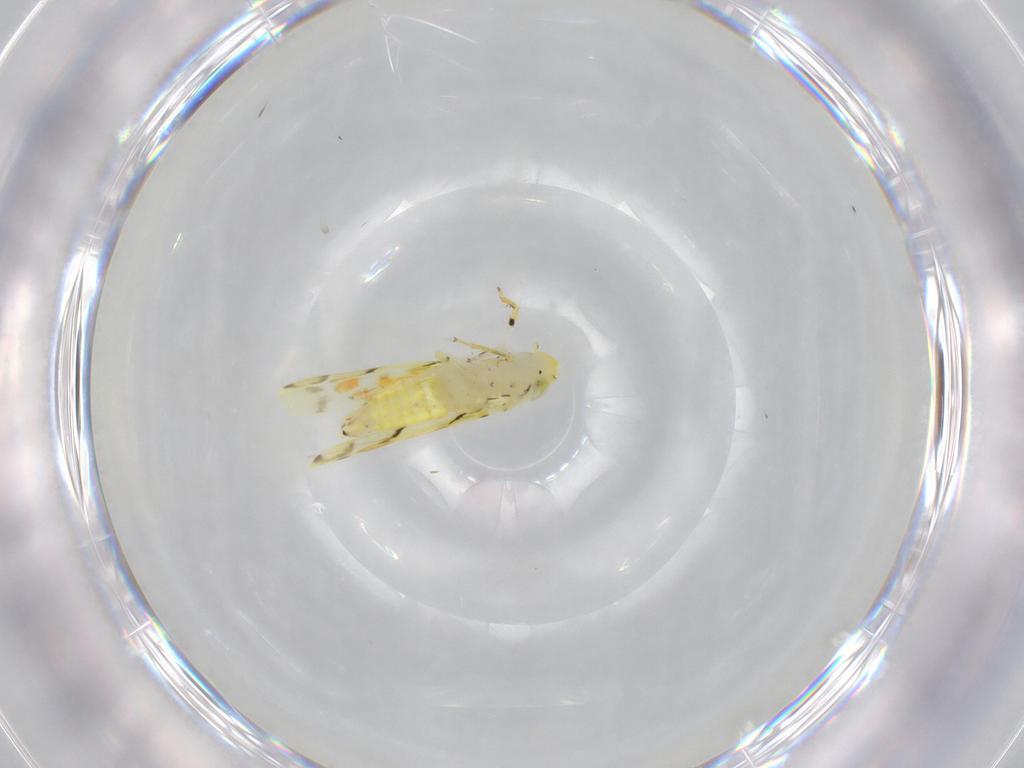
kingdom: Animalia
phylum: Arthropoda
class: Insecta
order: Hemiptera
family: Cicadellidae
